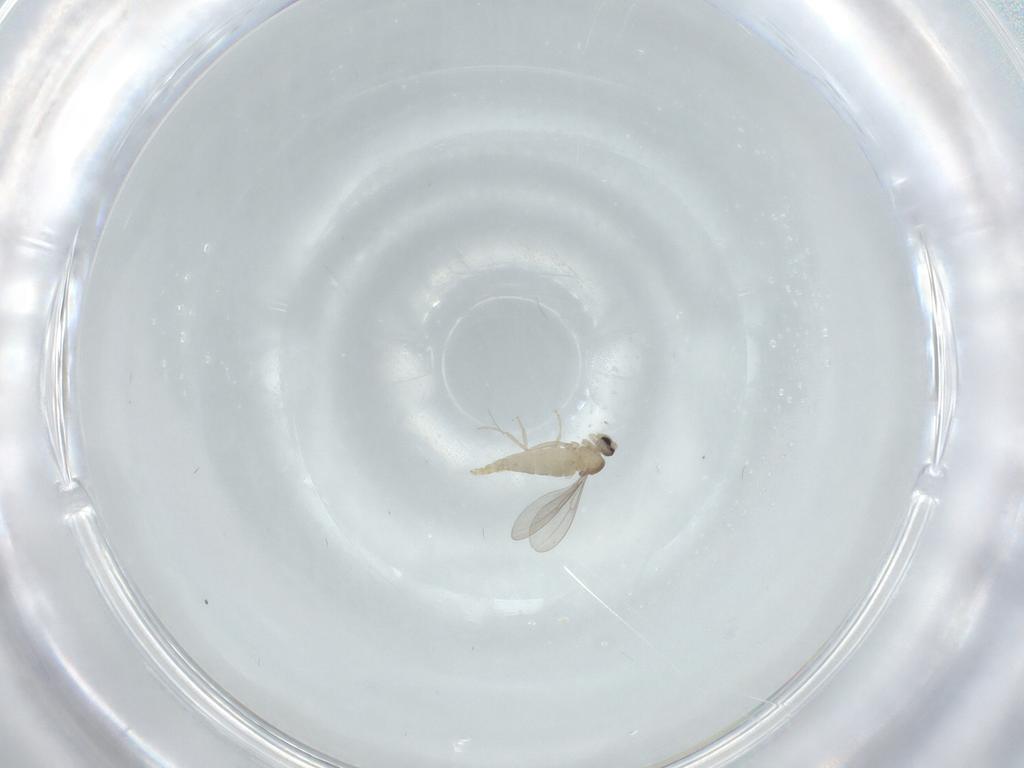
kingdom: Animalia
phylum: Arthropoda
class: Insecta
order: Diptera
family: Cecidomyiidae
